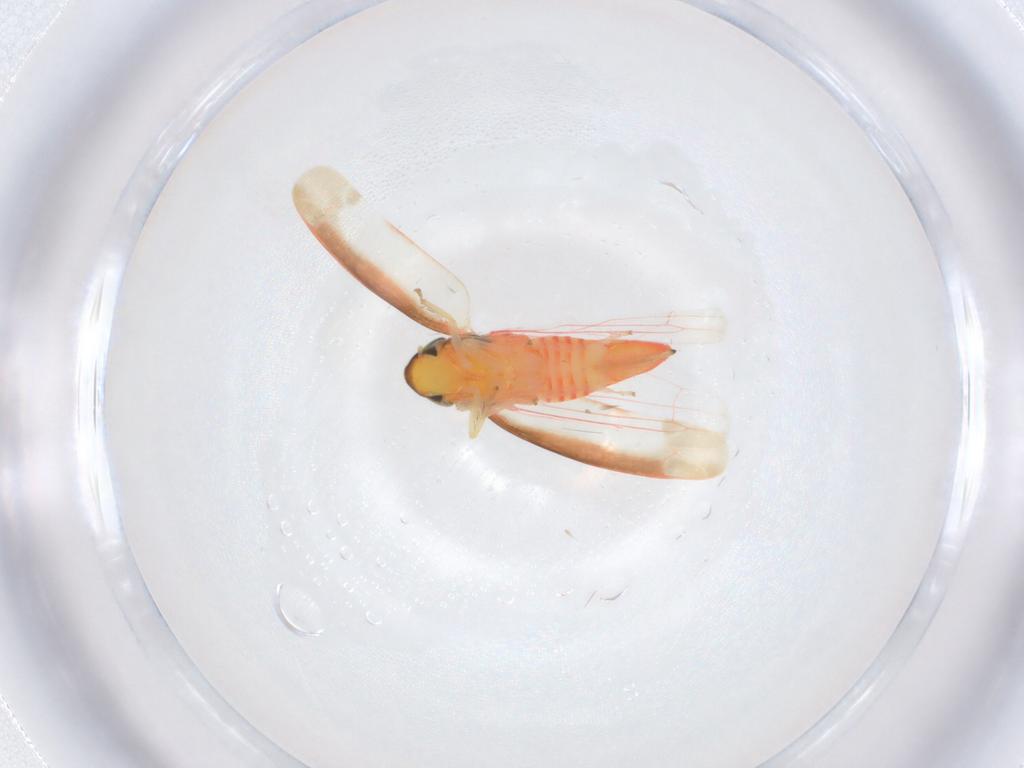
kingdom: Animalia
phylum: Arthropoda
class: Insecta
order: Hemiptera
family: Cicadellidae
